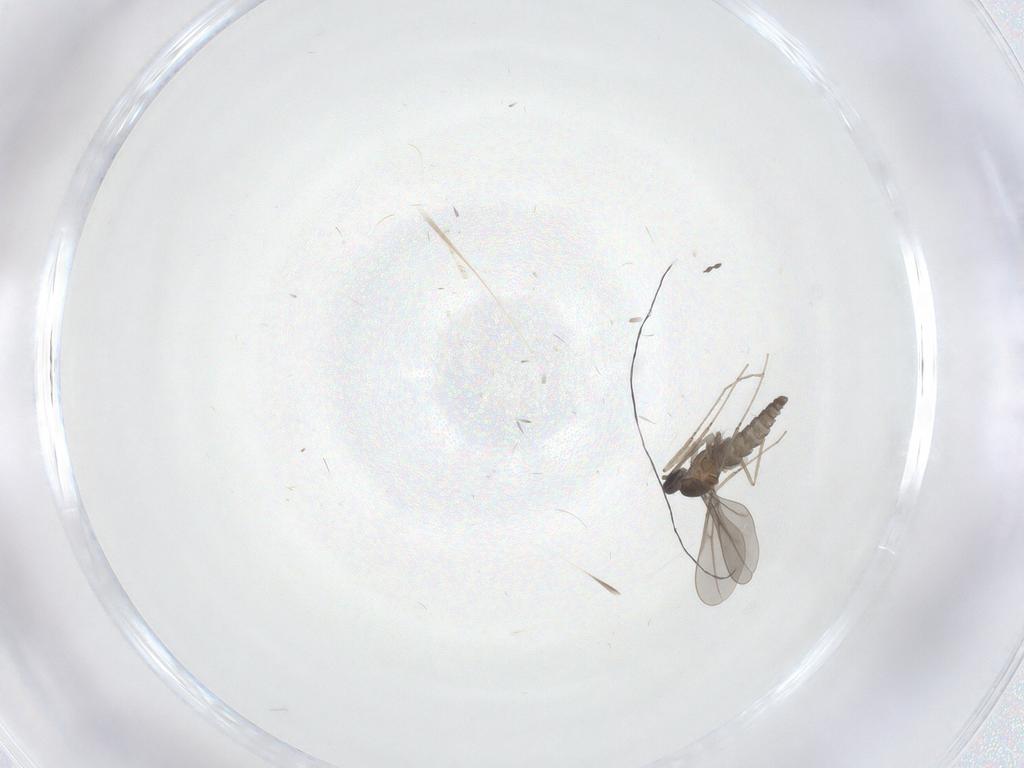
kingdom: Animalia
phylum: Arthropoda
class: Insecta
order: Diptera
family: Cecidomyiidae
